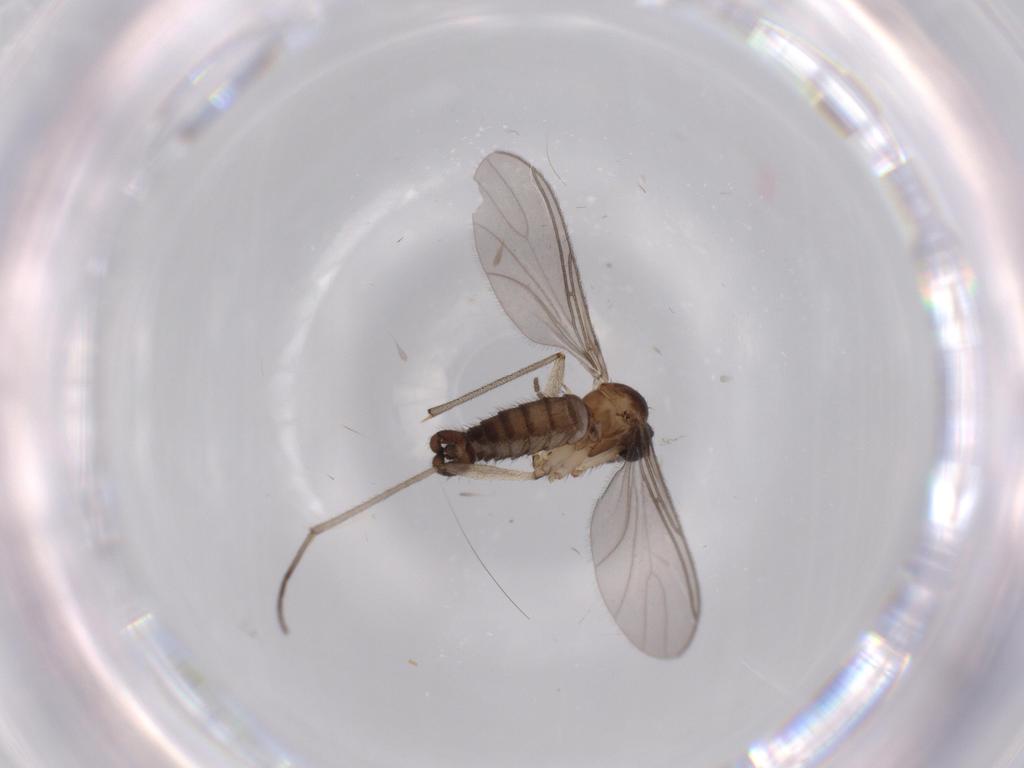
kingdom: Animalia
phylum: Arthropoda
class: Insecta
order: Diptera
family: Sciaridae
